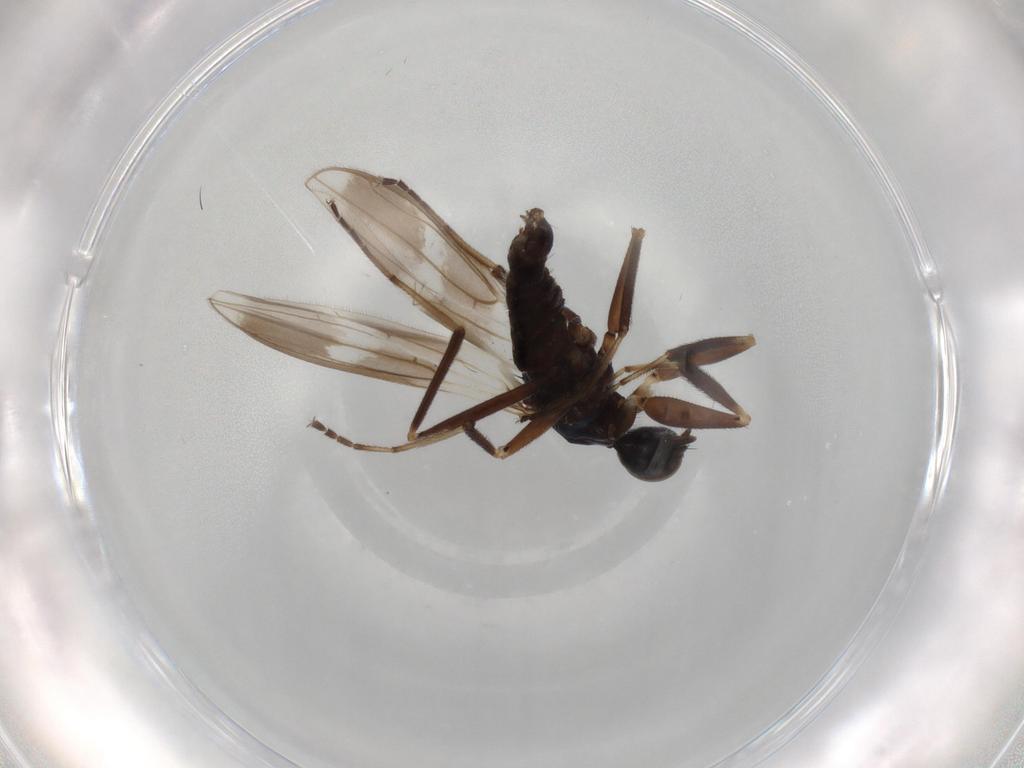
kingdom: Animalia
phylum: Arthropoda
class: Insecta
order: Diptera
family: Hybotidae
